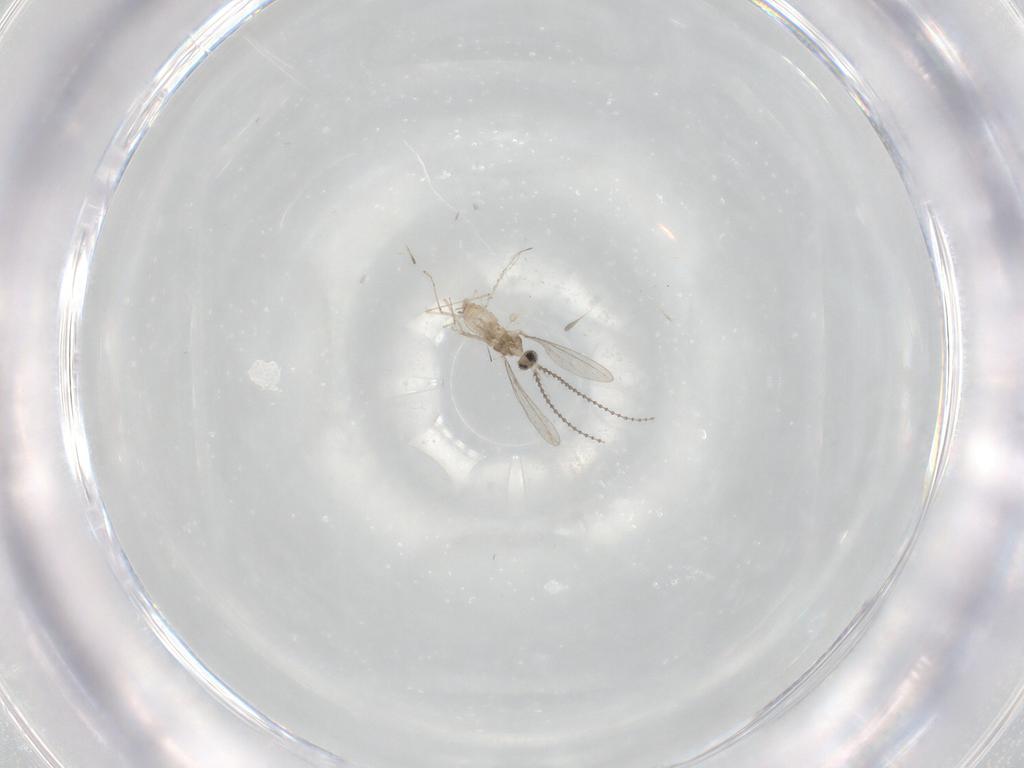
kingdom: Animalia
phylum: Arthropoda
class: Insecta
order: Diptera
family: Cecidomyiidae
